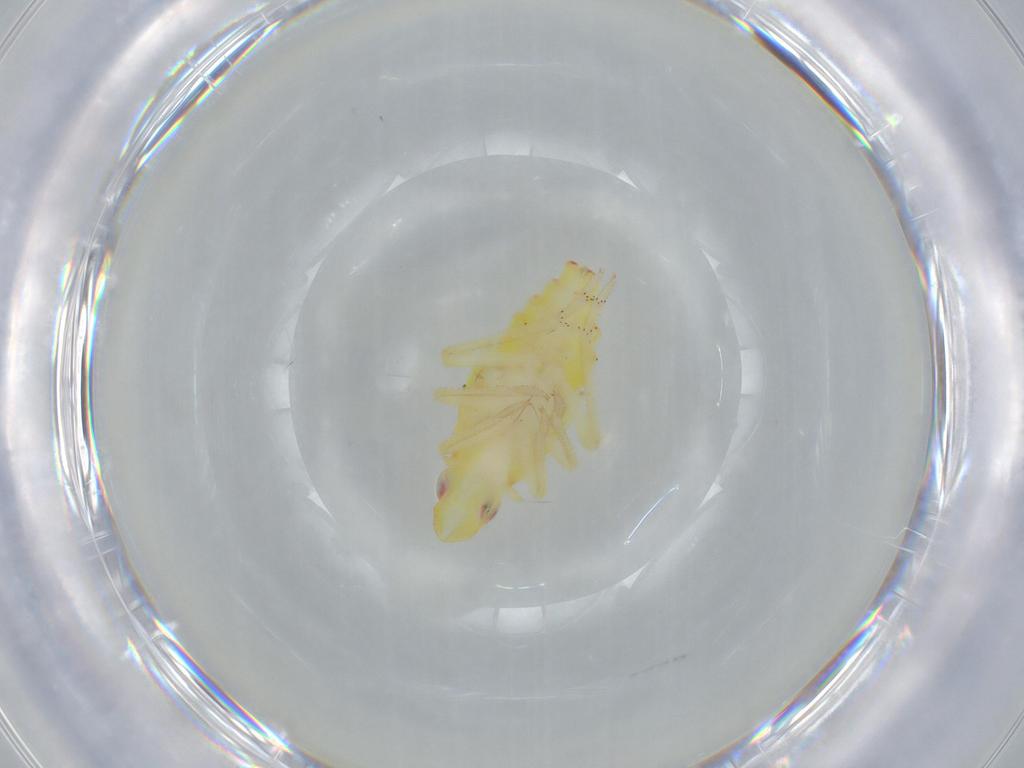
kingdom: Animalia
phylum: Arthropoda
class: Insecta
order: Hemiptera
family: Tropiduchidae
